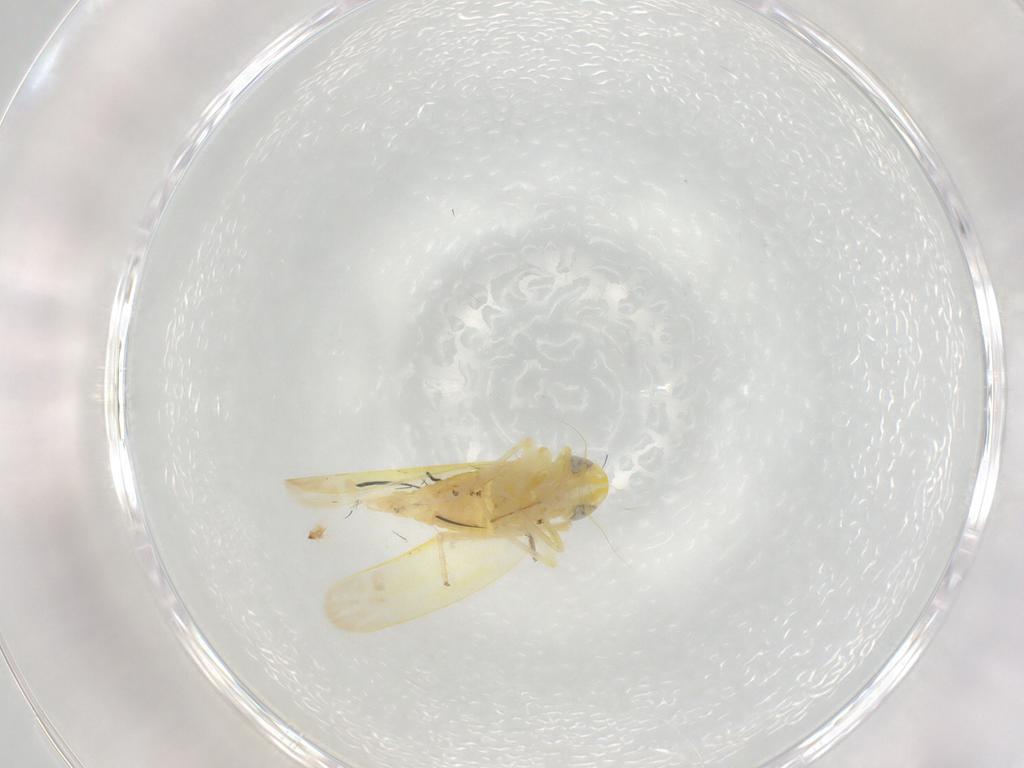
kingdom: Animalia
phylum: Arthropoda
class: Insecta
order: Hemiptera
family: Cicadellidae
